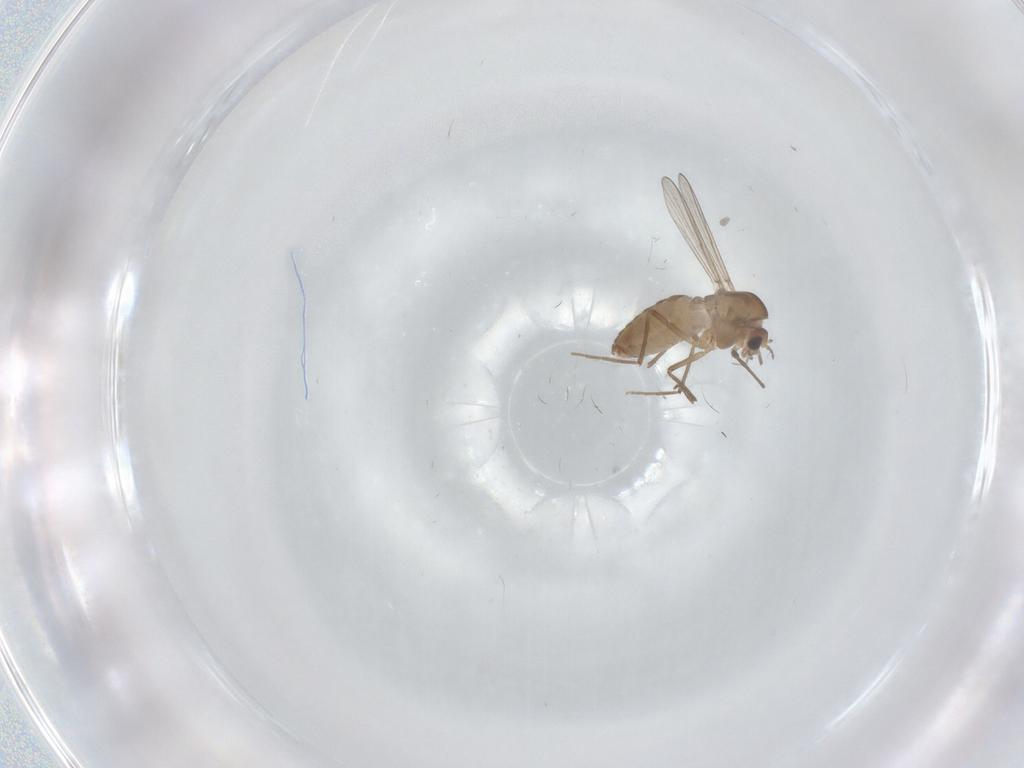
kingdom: Animalia
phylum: Arthropoda
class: Insecta
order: Diptera
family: Chironomidae
